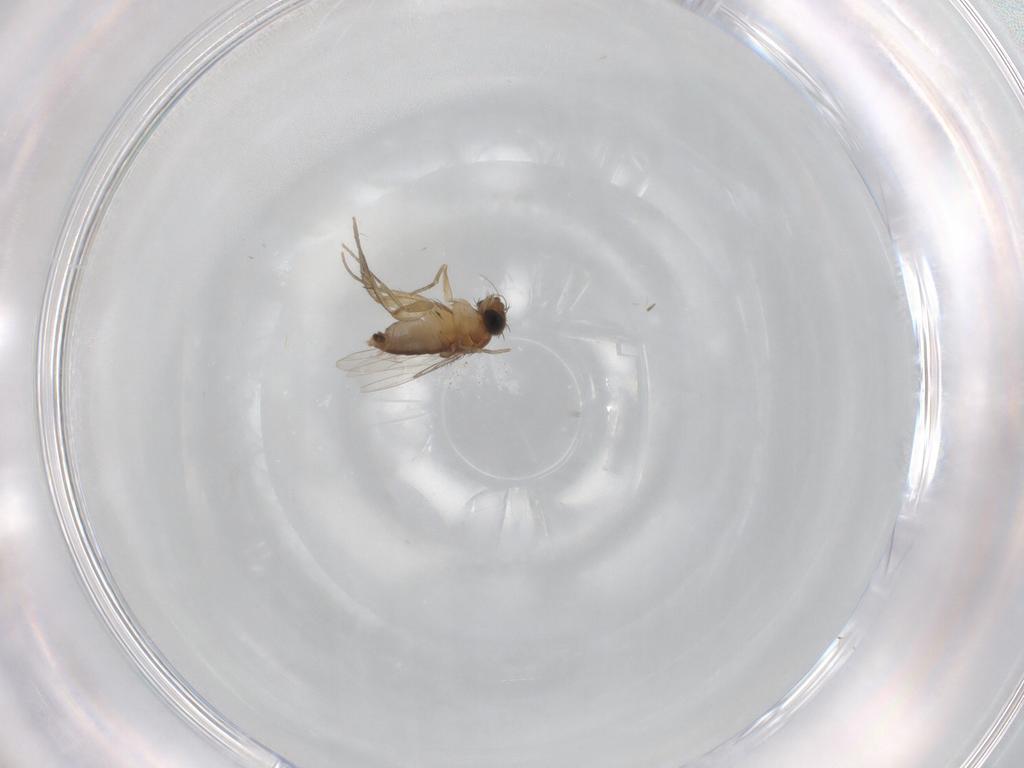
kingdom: Animalia
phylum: Arthropoda
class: Insecta
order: Diptera
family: Phoridae
